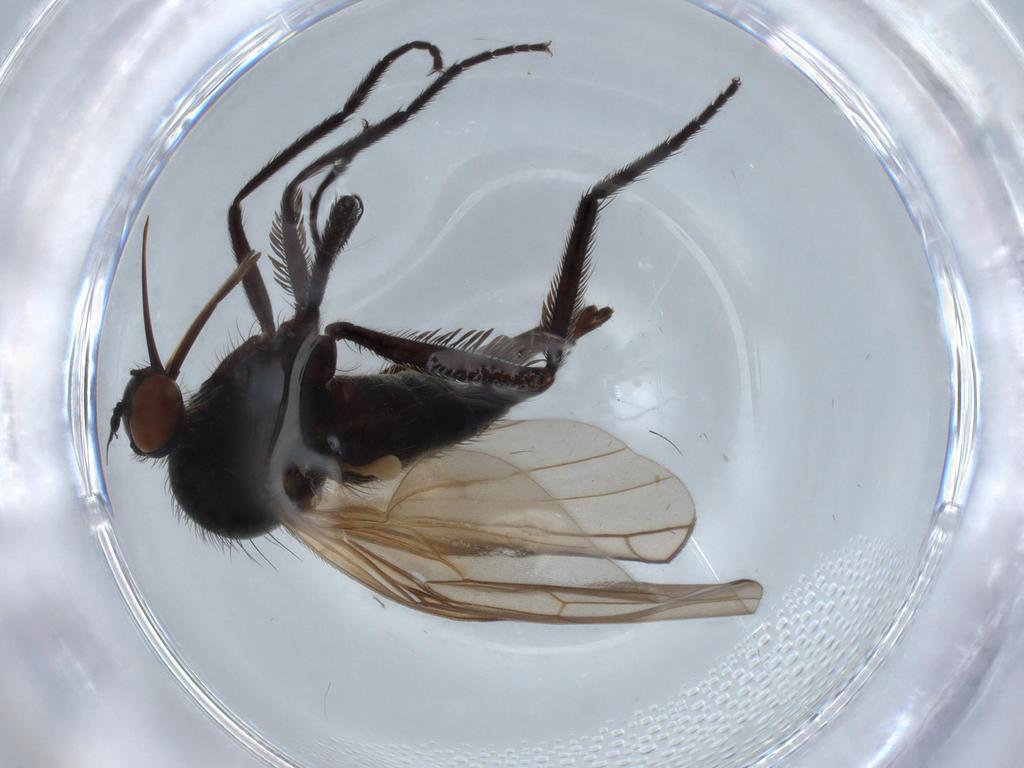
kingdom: Animalia
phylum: Arthropoda
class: Insecta
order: Diptera
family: Empididae
